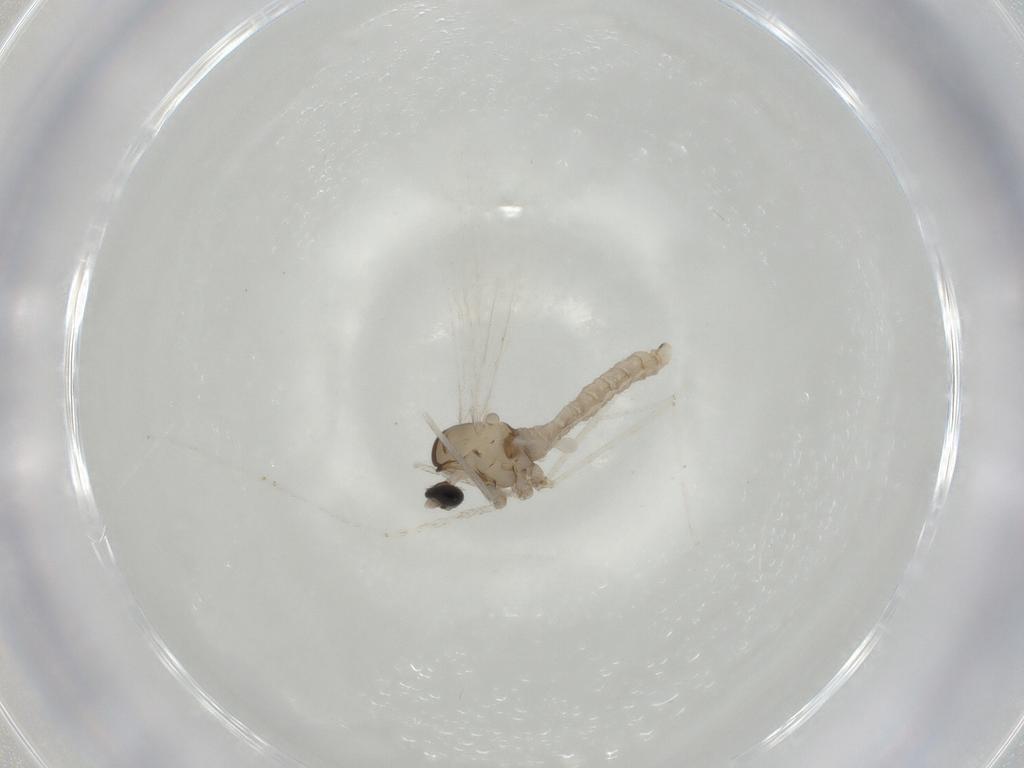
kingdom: Animalia
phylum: Arthropoda
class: Insecta
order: Diptera
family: Cecidomyiidae
